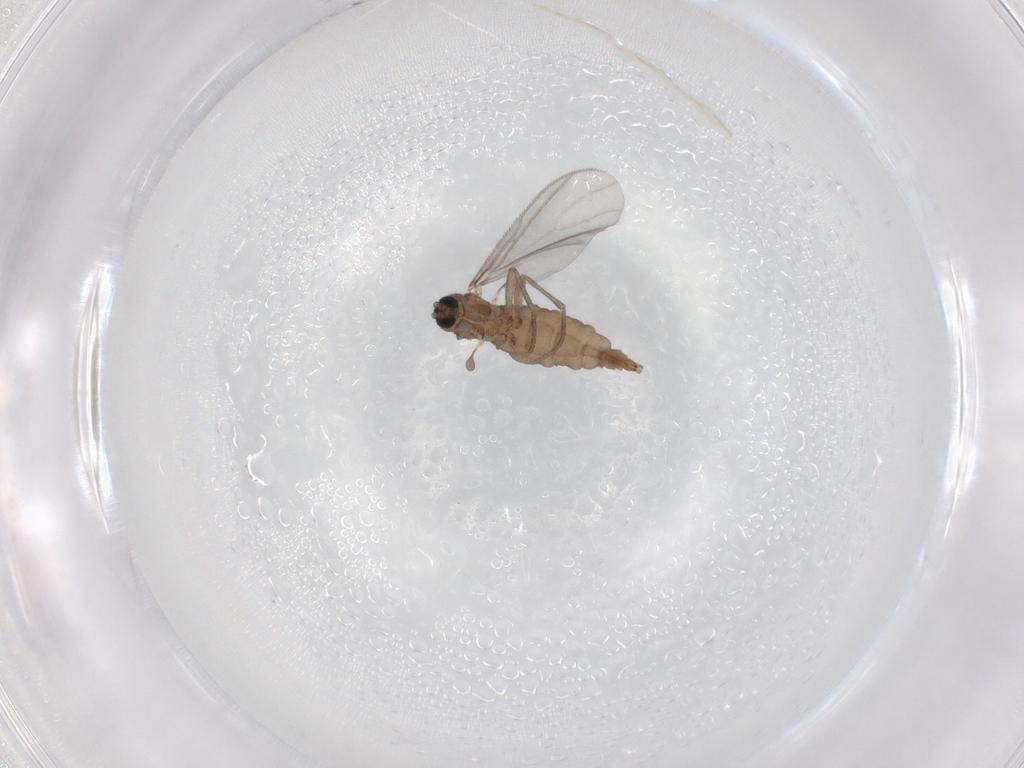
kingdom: Animalia
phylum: Arthropoda
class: Insecta
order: Diptera
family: Sciaridae
